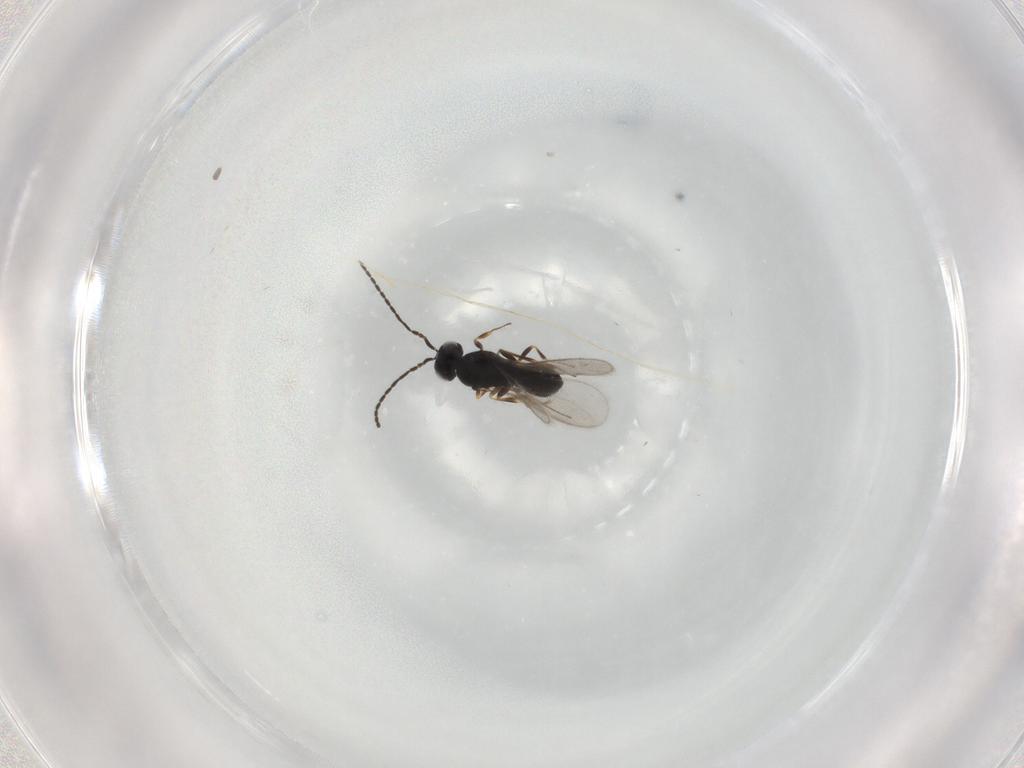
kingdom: Animalia
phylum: Arthropoda
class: Insecta
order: Hymenoptera
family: Scelionidae
